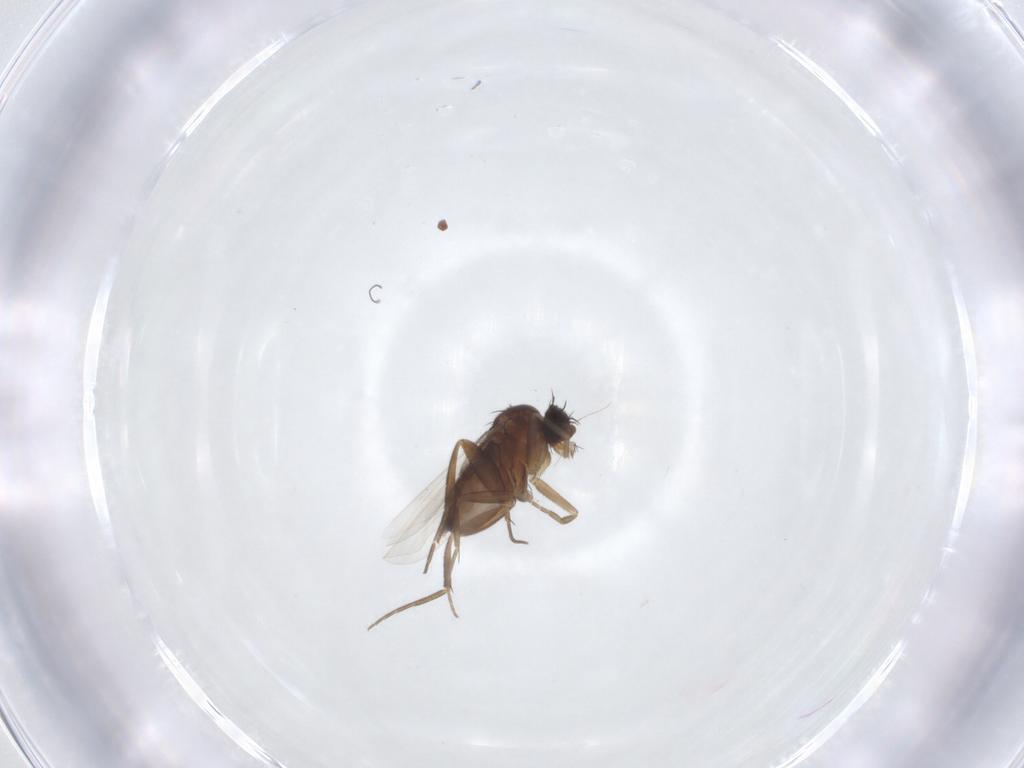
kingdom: Animalia
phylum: Arthropoda
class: Insecta
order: Diptera
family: Phoridae
